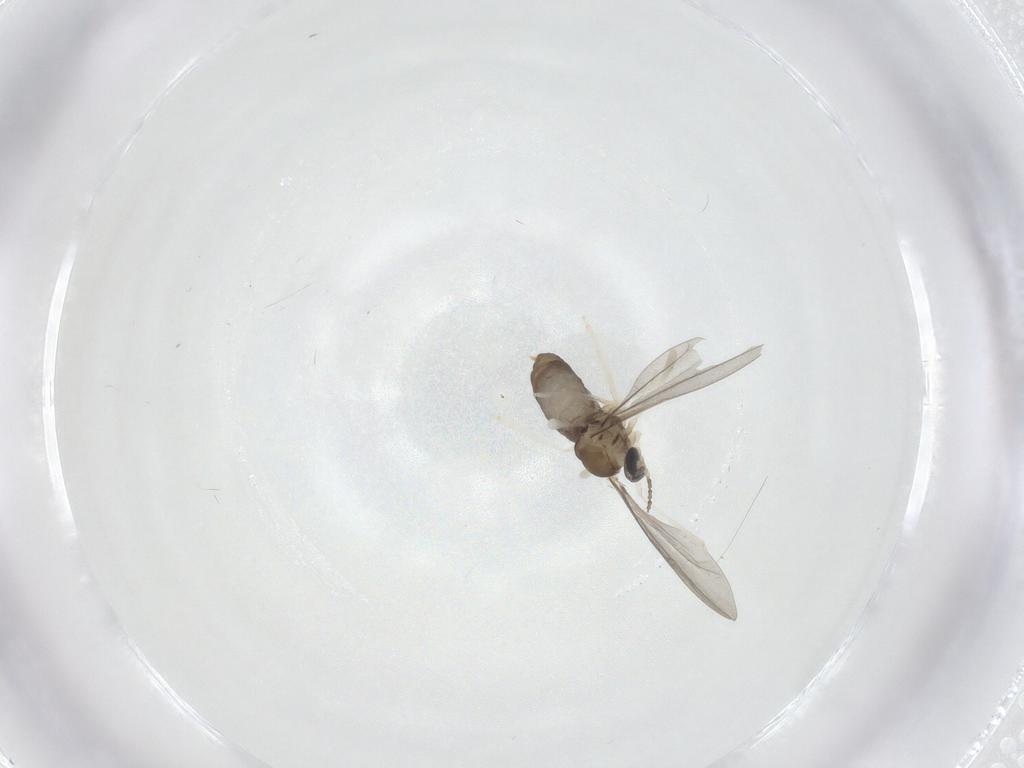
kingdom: Animalia
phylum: Arthropoda
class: Insecta
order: Diptera
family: Cecidomyiidae
